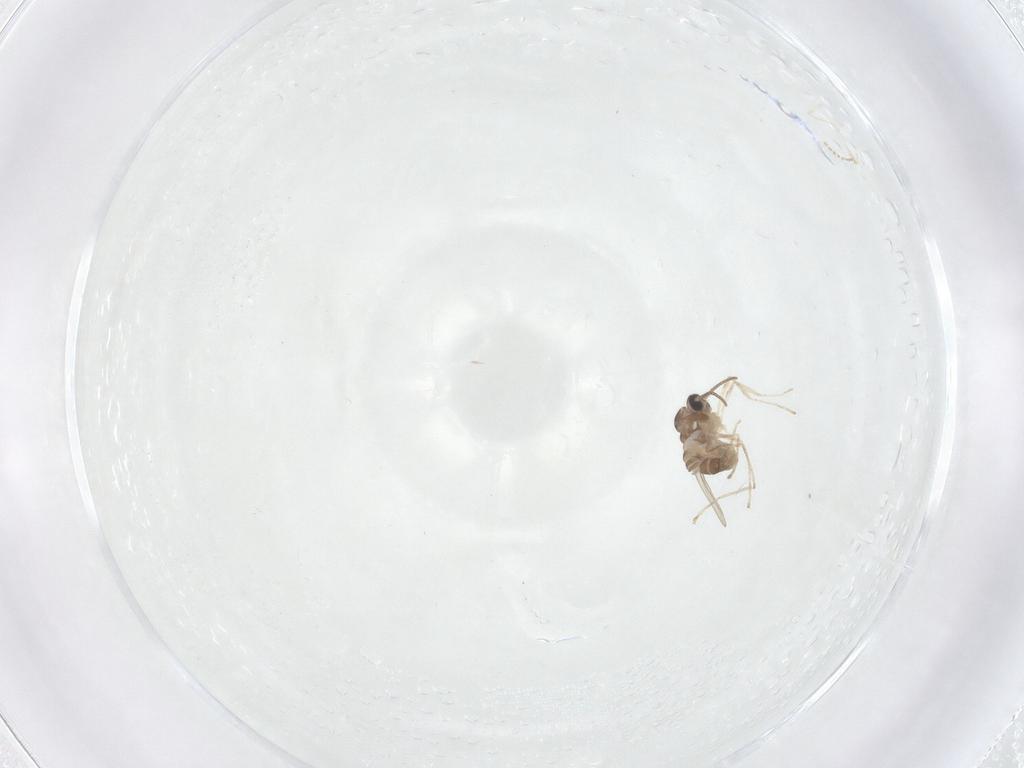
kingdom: Animalia
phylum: Arthropoda
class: Insecta
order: Diptera
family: Cecidomyiidae
